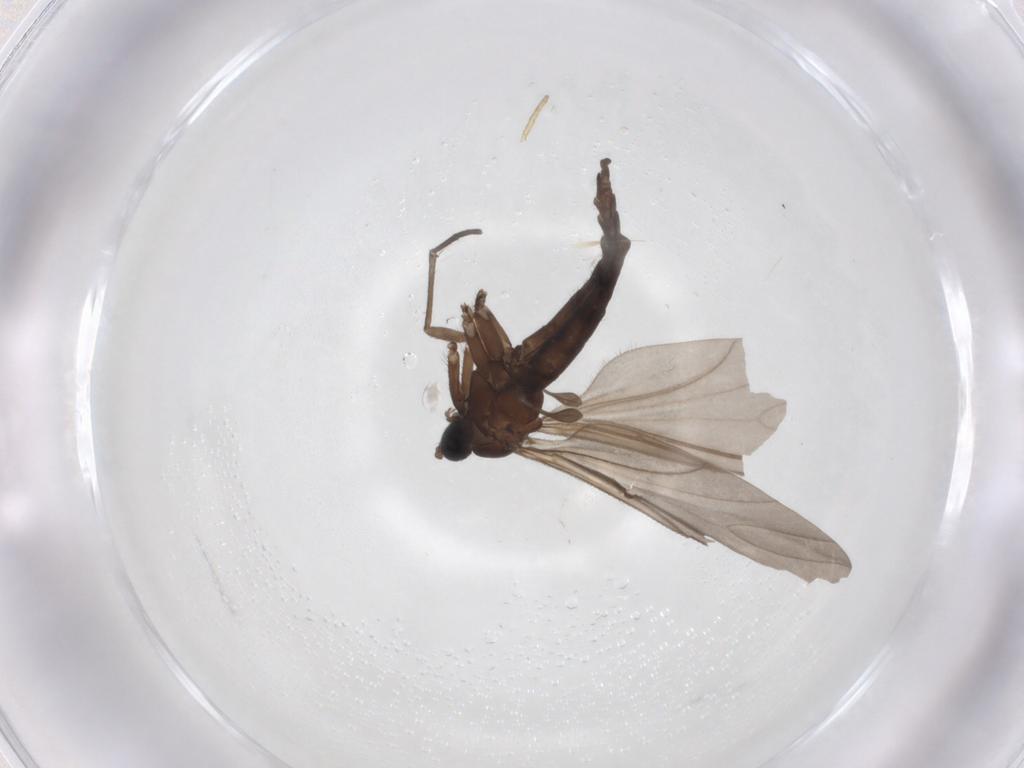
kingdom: Animalia
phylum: Arthropoda
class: Insecta
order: Diptera
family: Sciaridae
